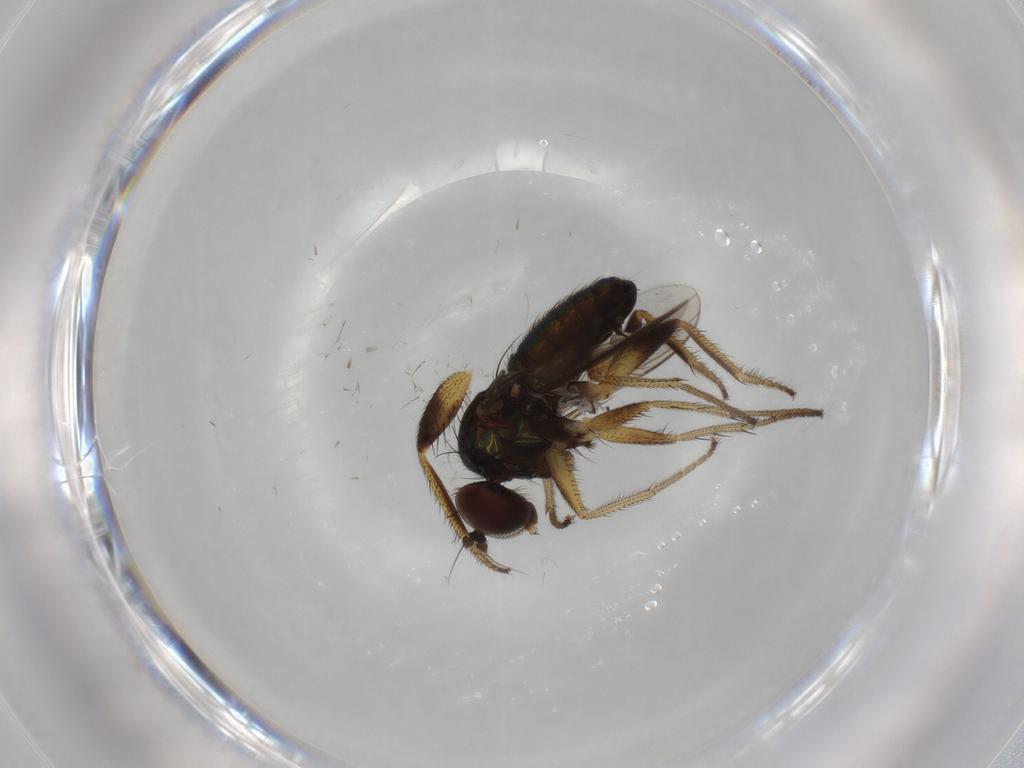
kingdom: Animalia
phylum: Arthropoda
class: Insecta
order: Diptera
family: Dolichopodidae
